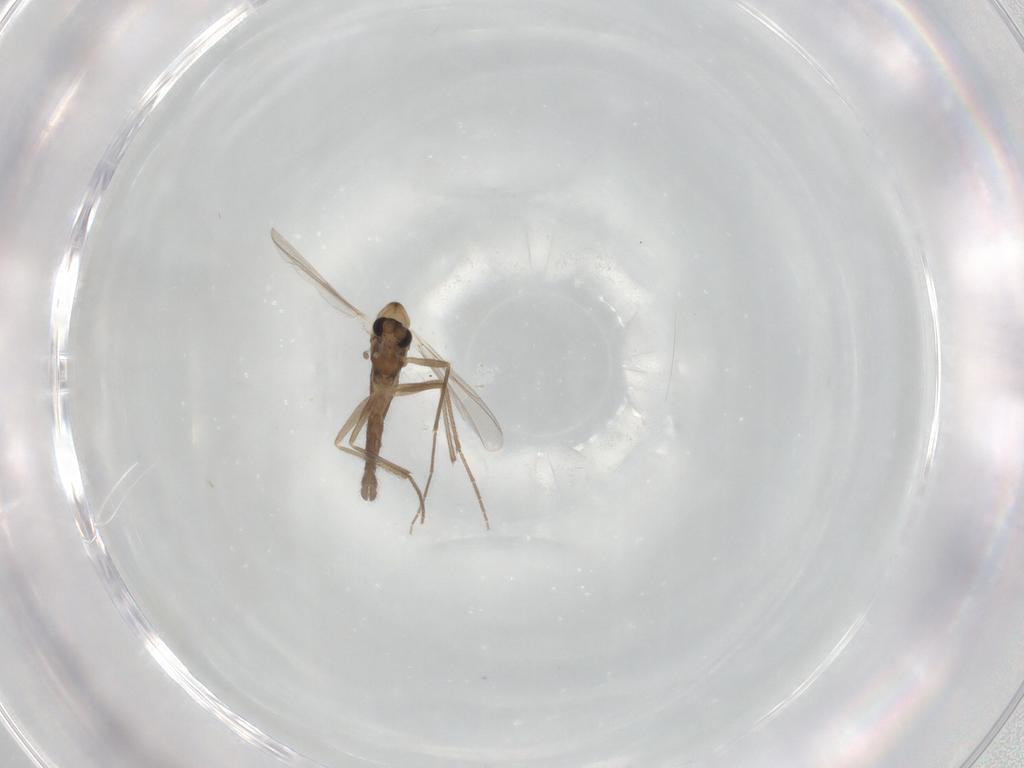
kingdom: Animalia
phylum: Arthropoda
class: Insecta
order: Diptera
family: Chironomidae
